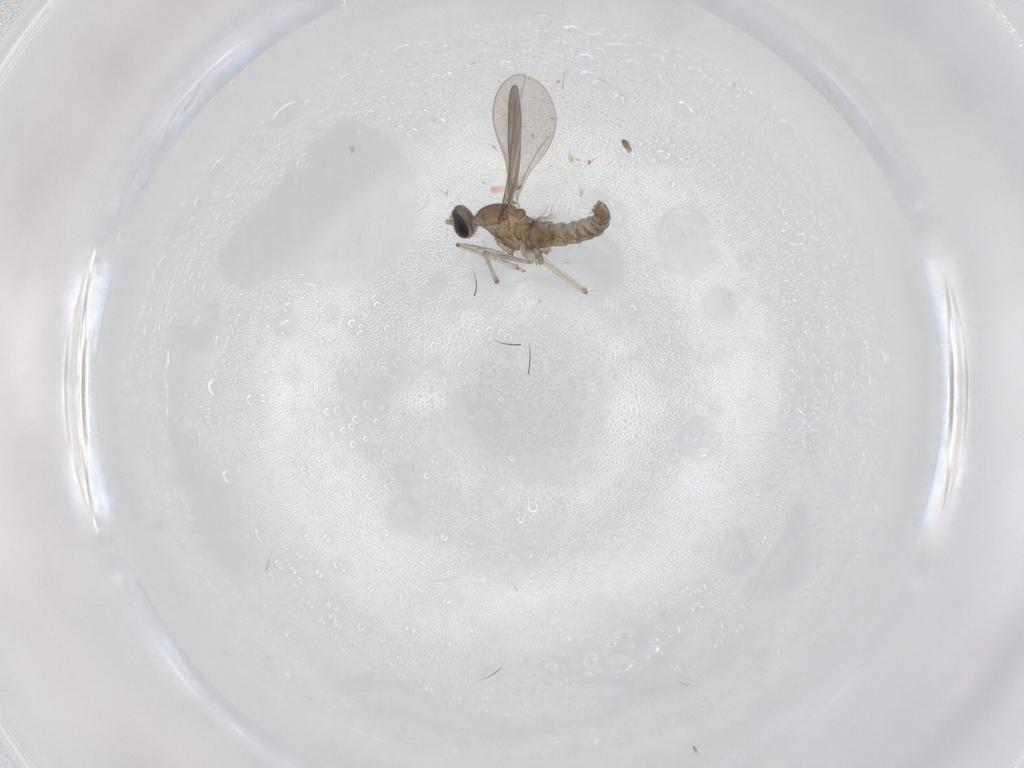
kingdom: Animalia
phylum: Arthropoda
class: Insecta
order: Diptera
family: Cecidomyiidae
